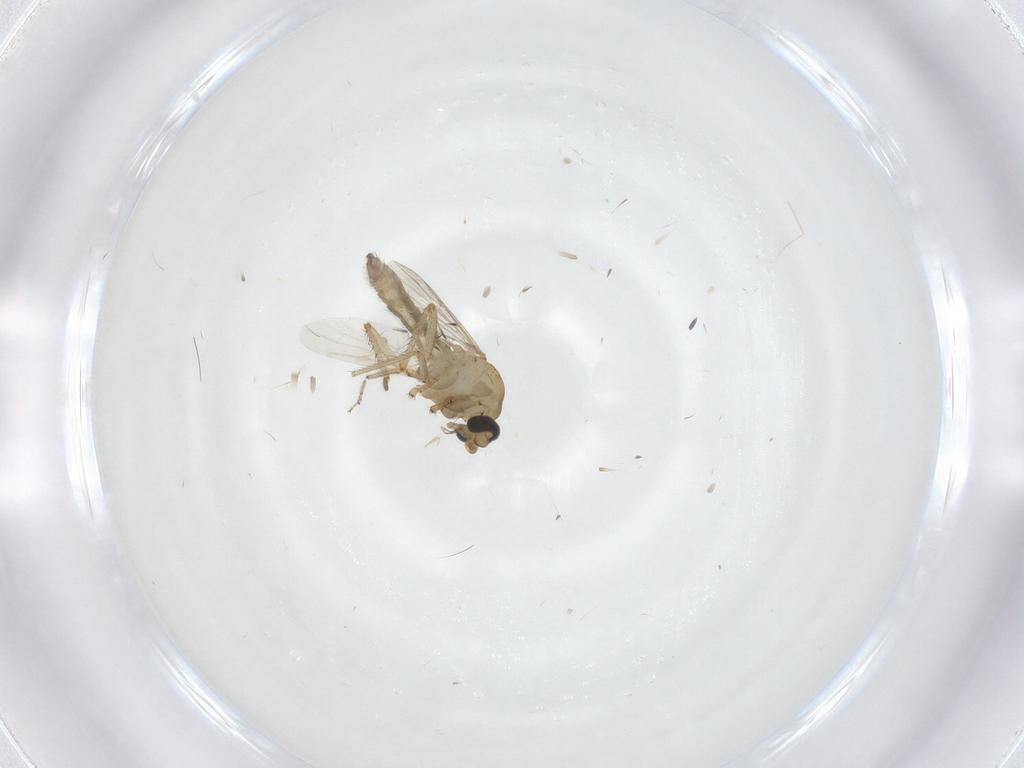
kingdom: Animalia
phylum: Arthropoda
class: Insecta
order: Diptera
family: Ceratopogonidae
